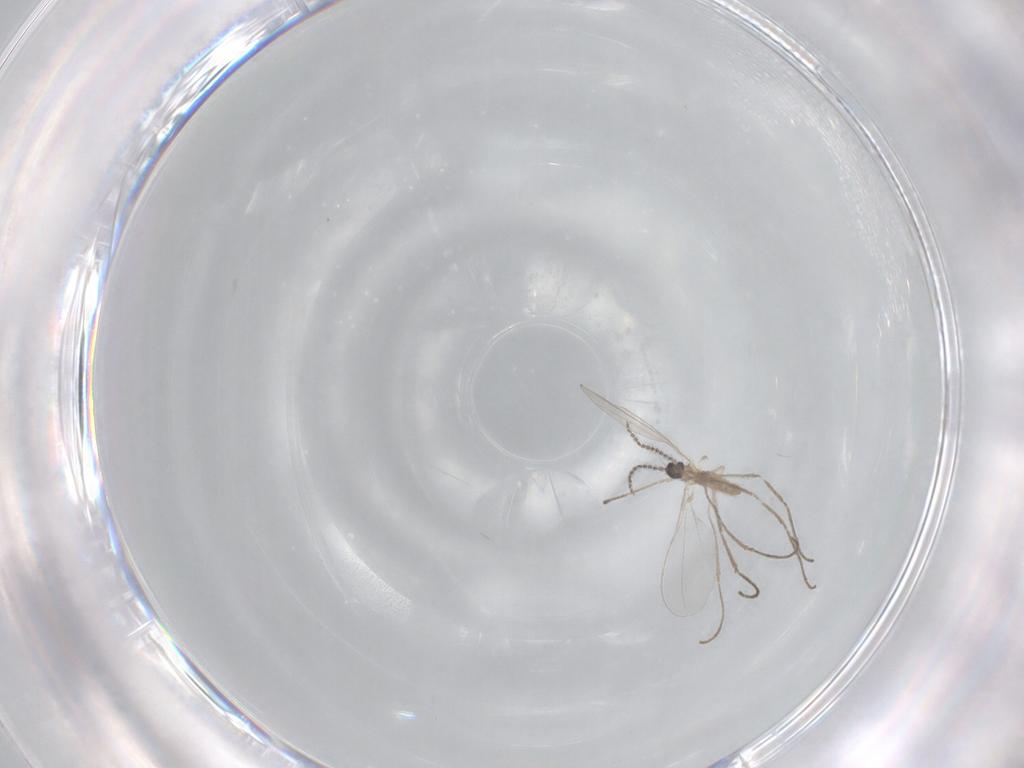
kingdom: Animalia
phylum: Arthropoda
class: Insecta
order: Diptera
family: Cecidomyiidae
